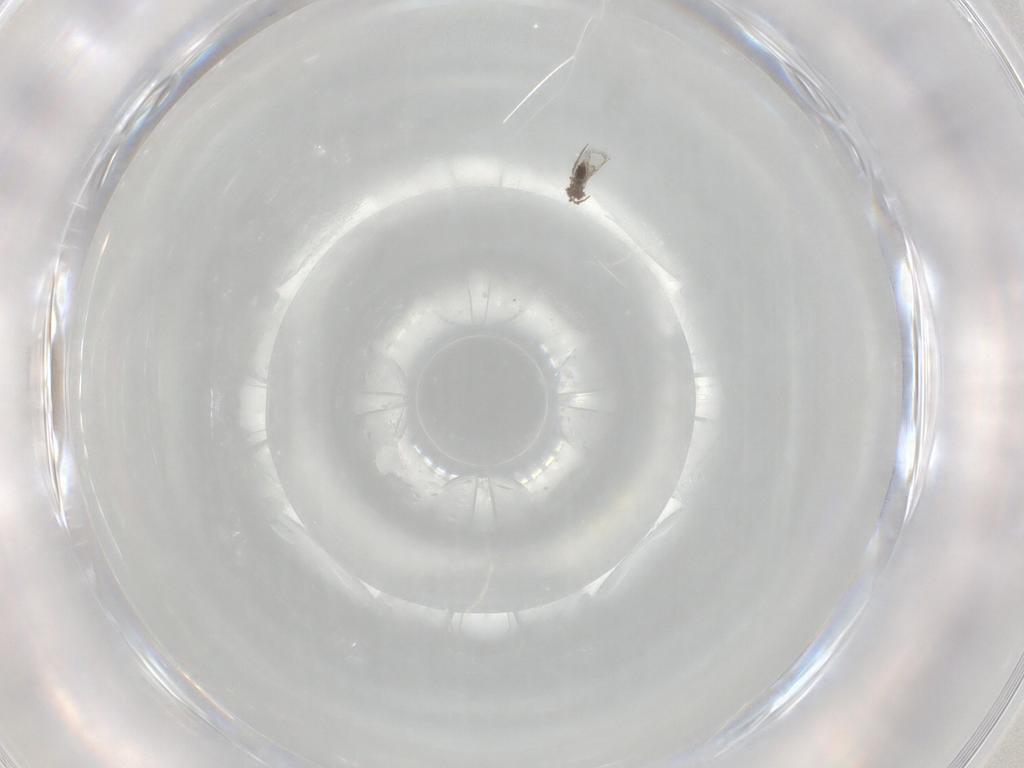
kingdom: Animalia
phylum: Arthropoda
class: Insecta
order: Hymenoptera
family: Trichogrammatidae
